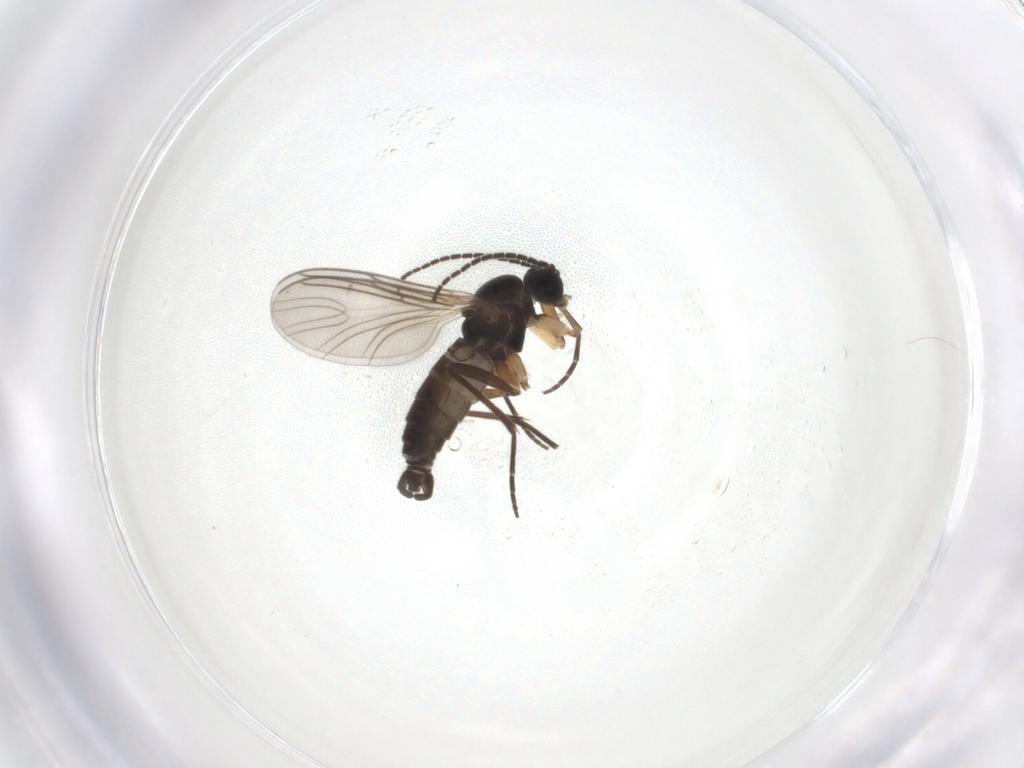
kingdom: Animalia
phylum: Arthropoda
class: Insecta
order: Diptera
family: Sciaridae
